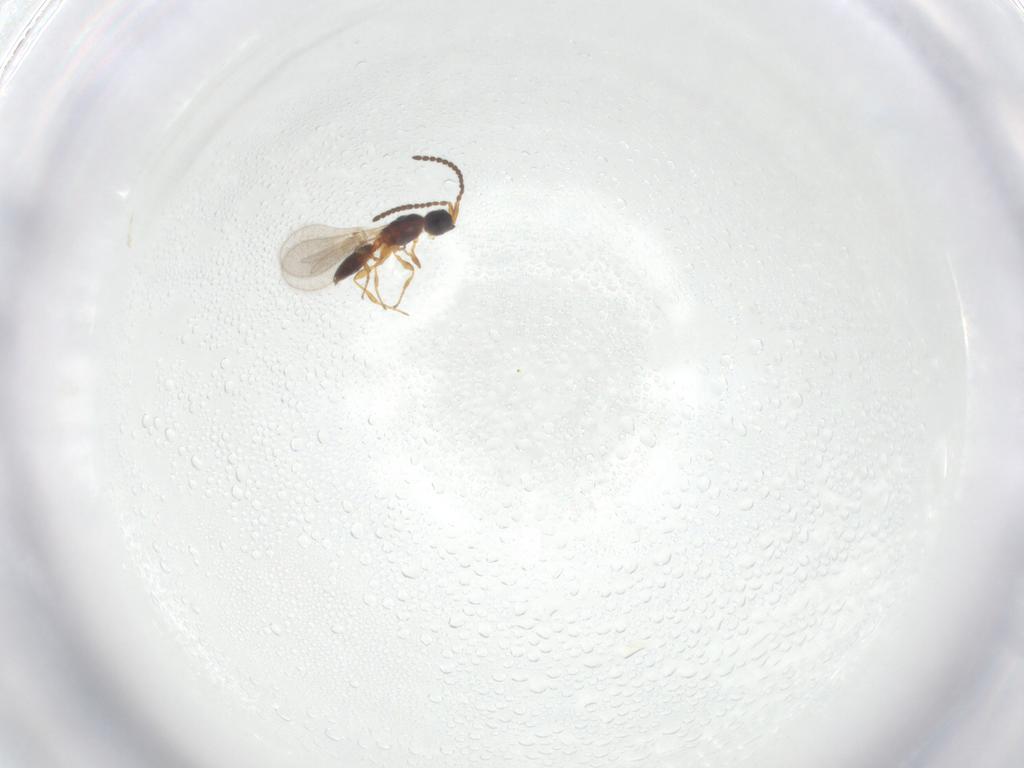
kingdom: Animalia
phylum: Arthropoda
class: Insecta
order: Hymenoptera
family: Diapriidae
